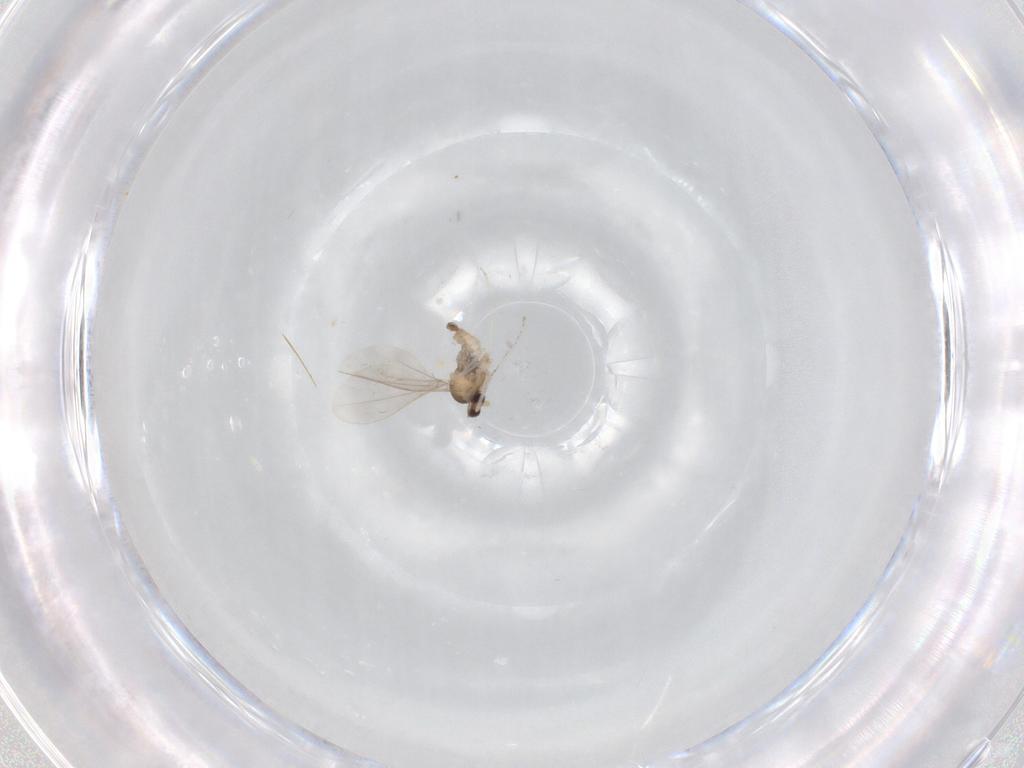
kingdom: Animalia
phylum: Arthropoda
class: Insecta
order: Diptera
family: Cecidomyiidae
